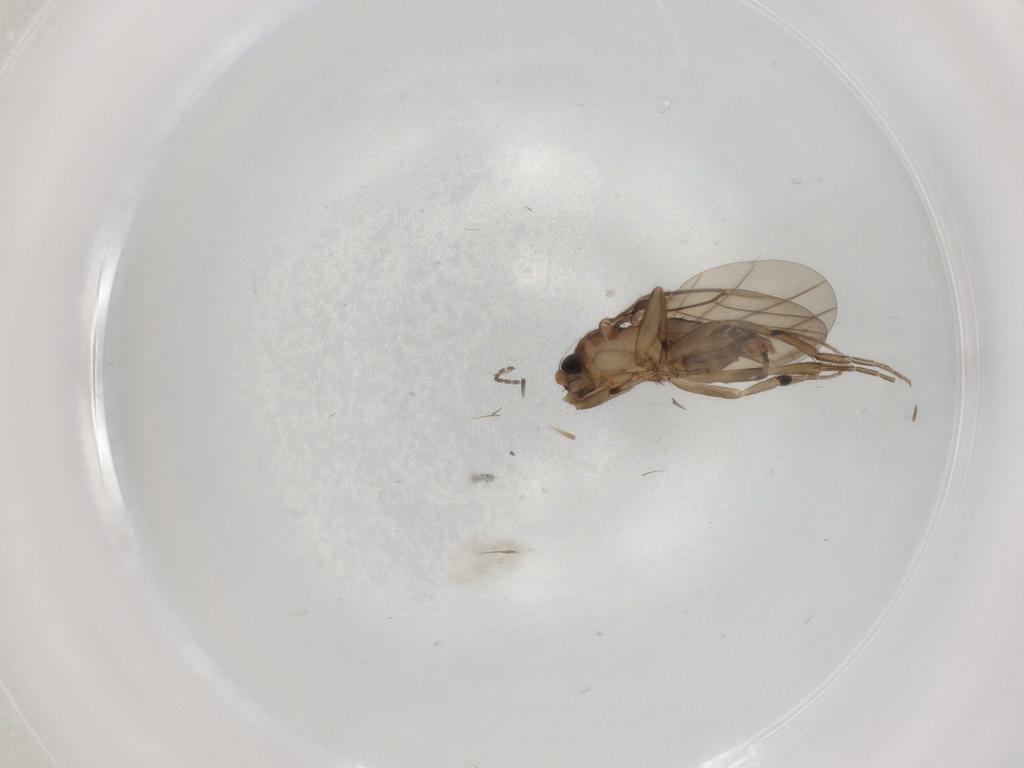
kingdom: Animalia
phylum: Arthropoda
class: Insecta
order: Diptera
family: Ceratopogonidae
